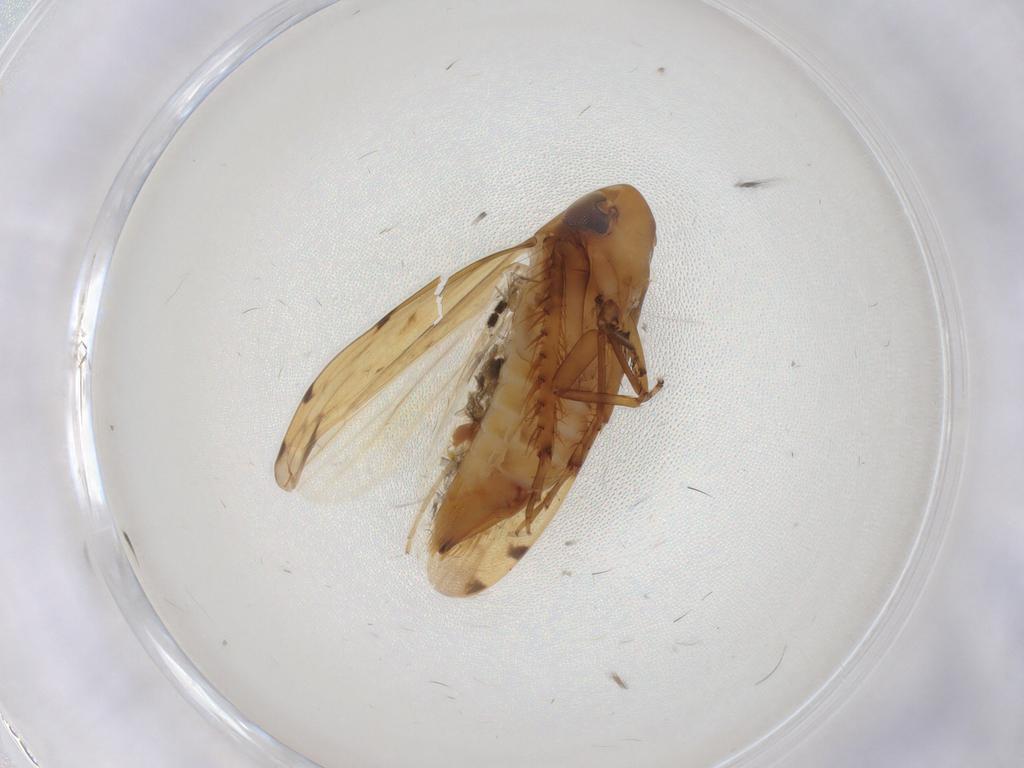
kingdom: Animalia
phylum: Arthropoda
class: Insecta
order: Hemiptera
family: Cicadellidae
